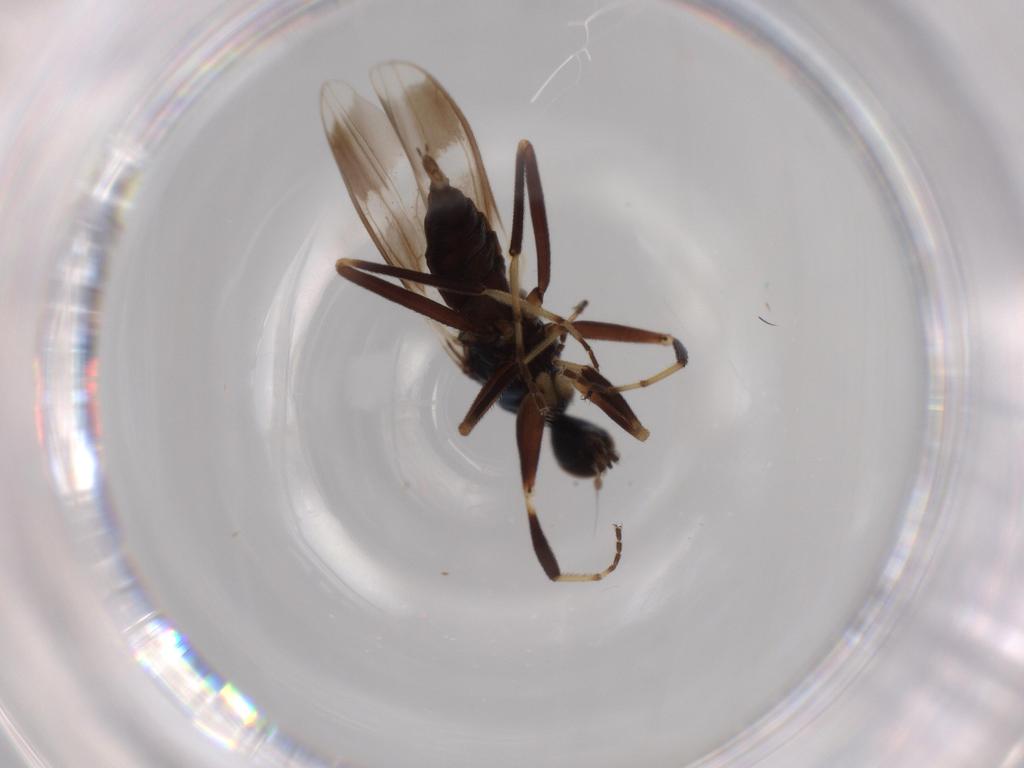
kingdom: Animalia
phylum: Arthropoda
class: Insecta
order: Diptera
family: Hybotidae
